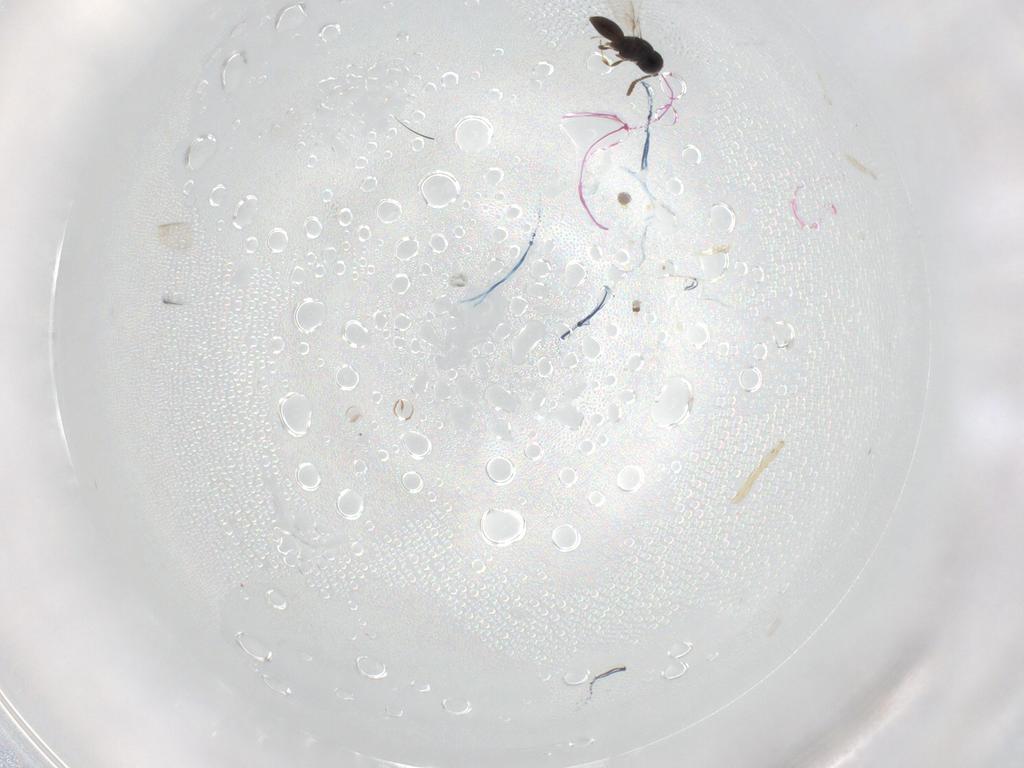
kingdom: Animalia
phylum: Arthropoda
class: Insecta
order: Hymenoptera
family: Scelionidae
